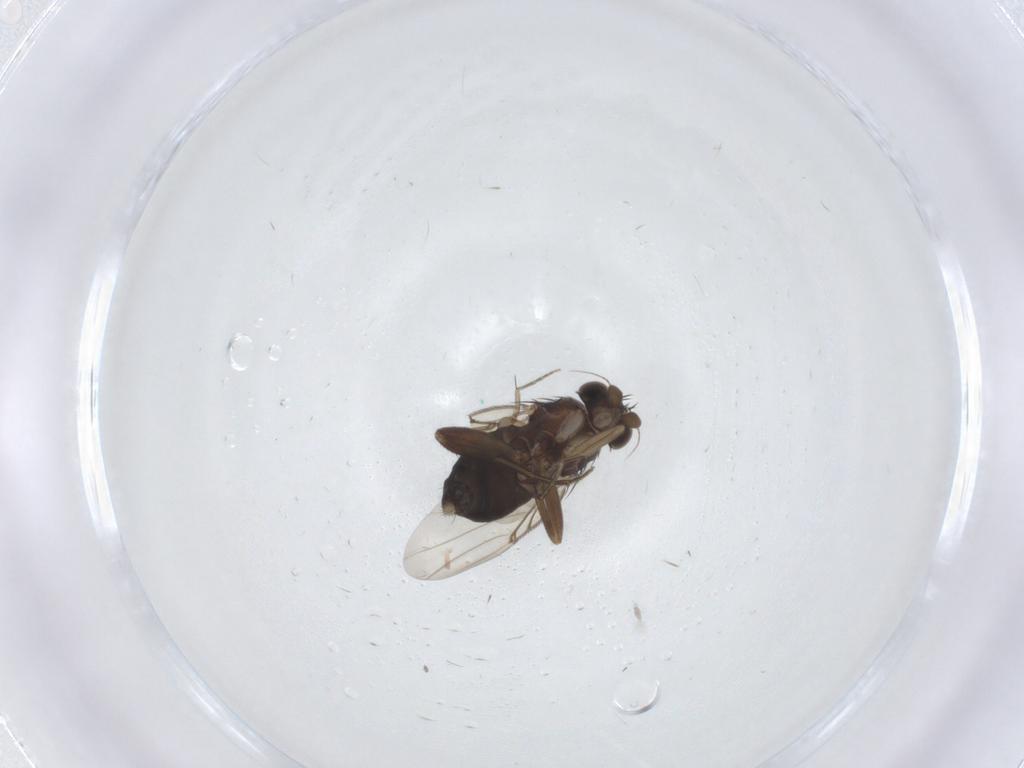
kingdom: Animalia
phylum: Arthropoda
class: Insecta
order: Diptera
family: Phoridae
